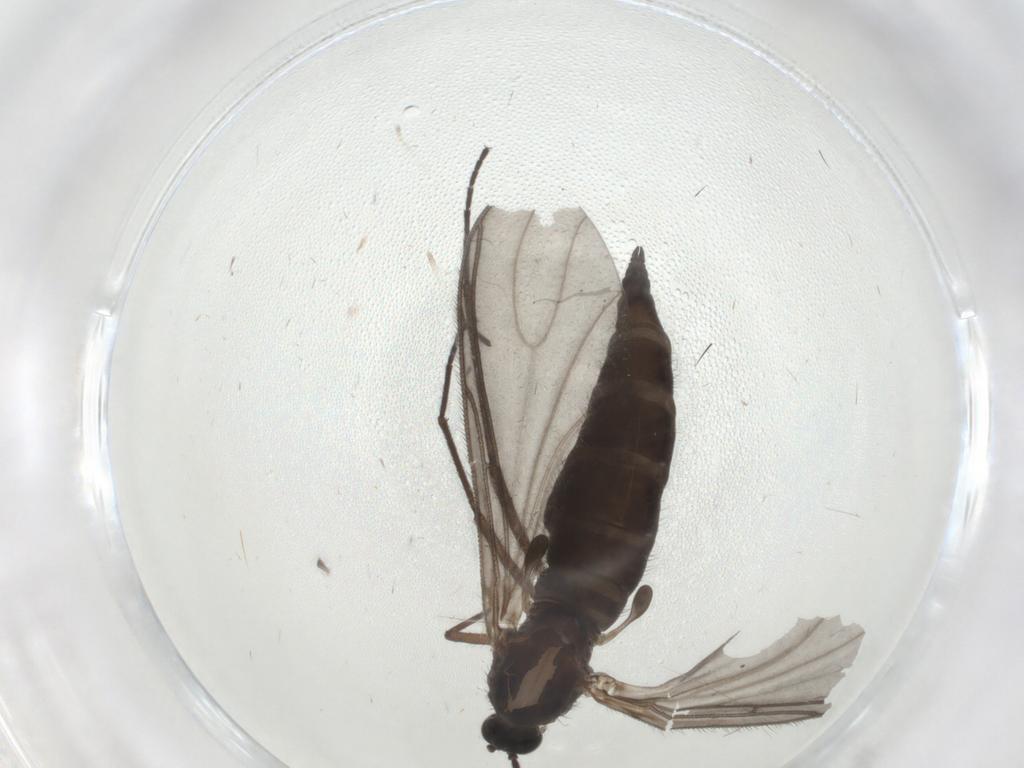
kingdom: Animalia
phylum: Arthropoda
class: Insecta
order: Diptera
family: Sciaridae
